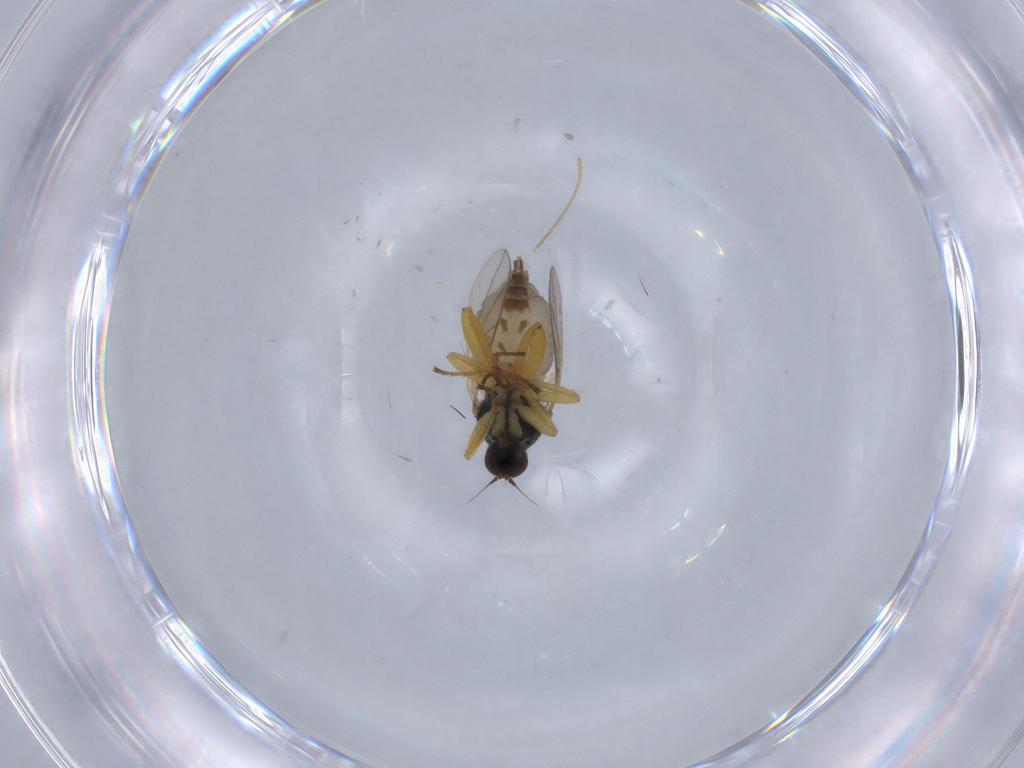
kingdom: Animalia
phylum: Arthropoda
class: Insecta
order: Diptera
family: Hybotidae
